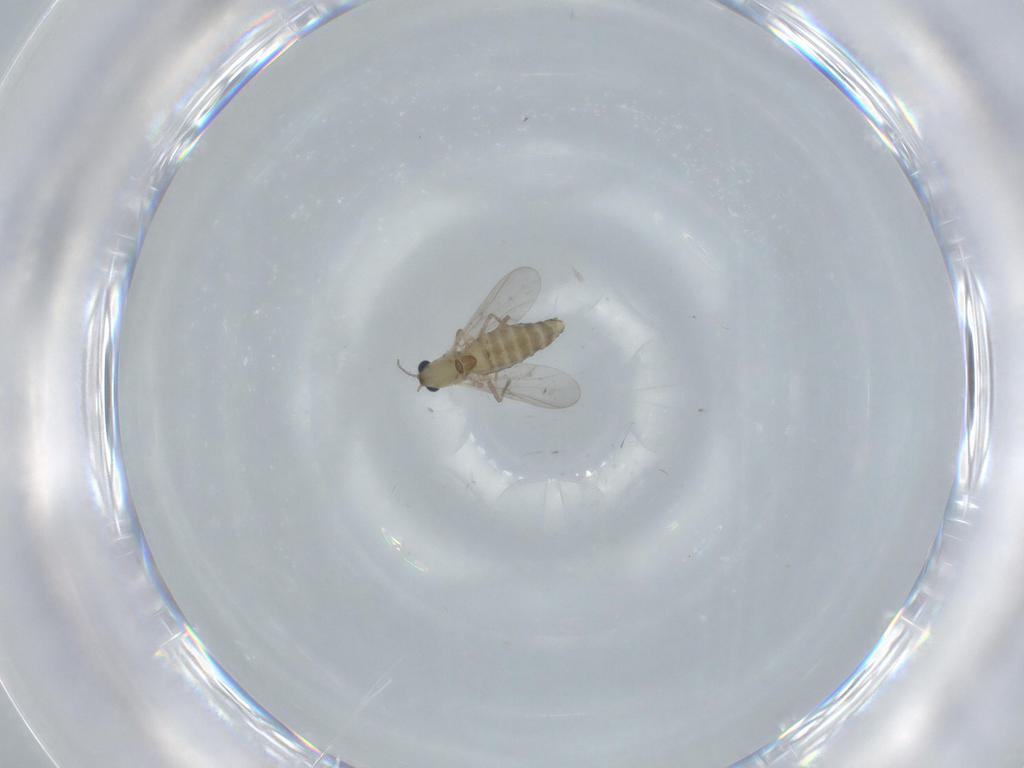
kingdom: Animalia
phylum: Arthropoda
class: Insecta
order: Diptera
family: Chironomidae
